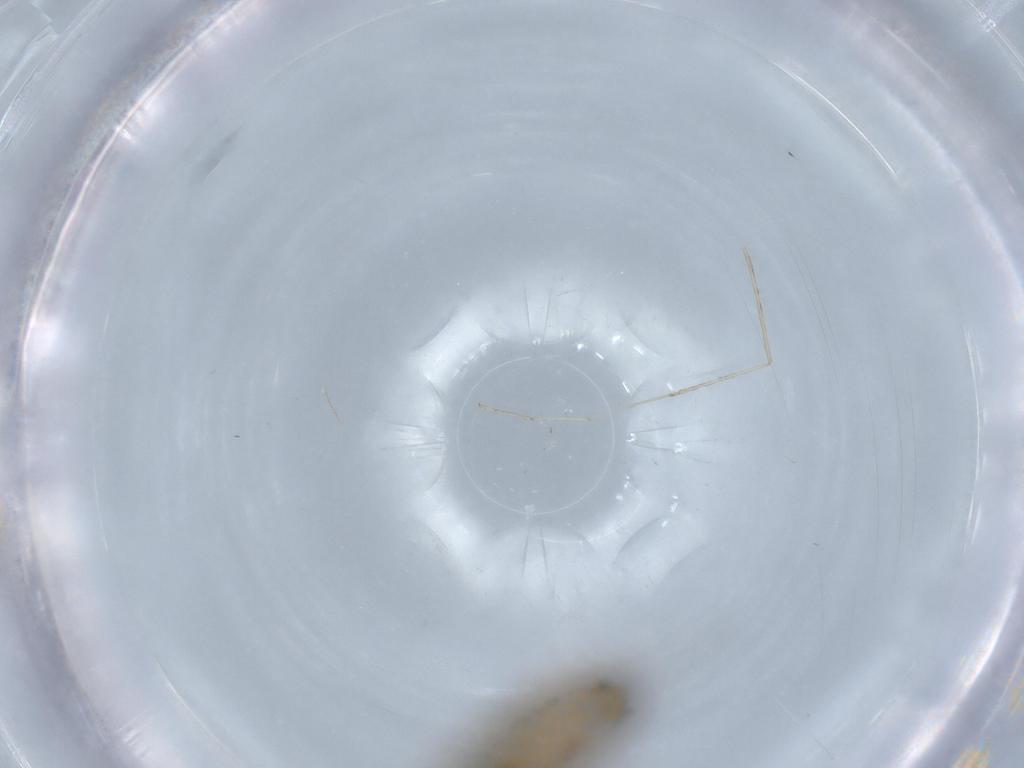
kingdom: Animalia
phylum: Arthropoda
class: Insecta
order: Diptera
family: Phoridae
